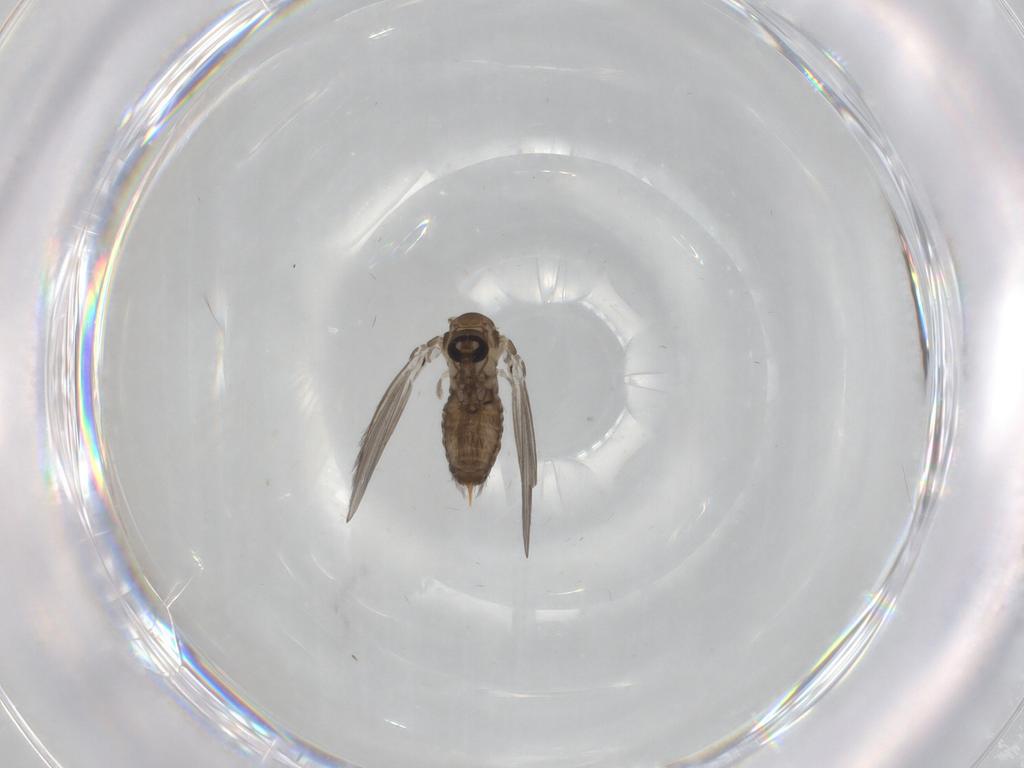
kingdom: Animalia
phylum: Arthropoda
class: Insecta
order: Diptera
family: Psychodidae
